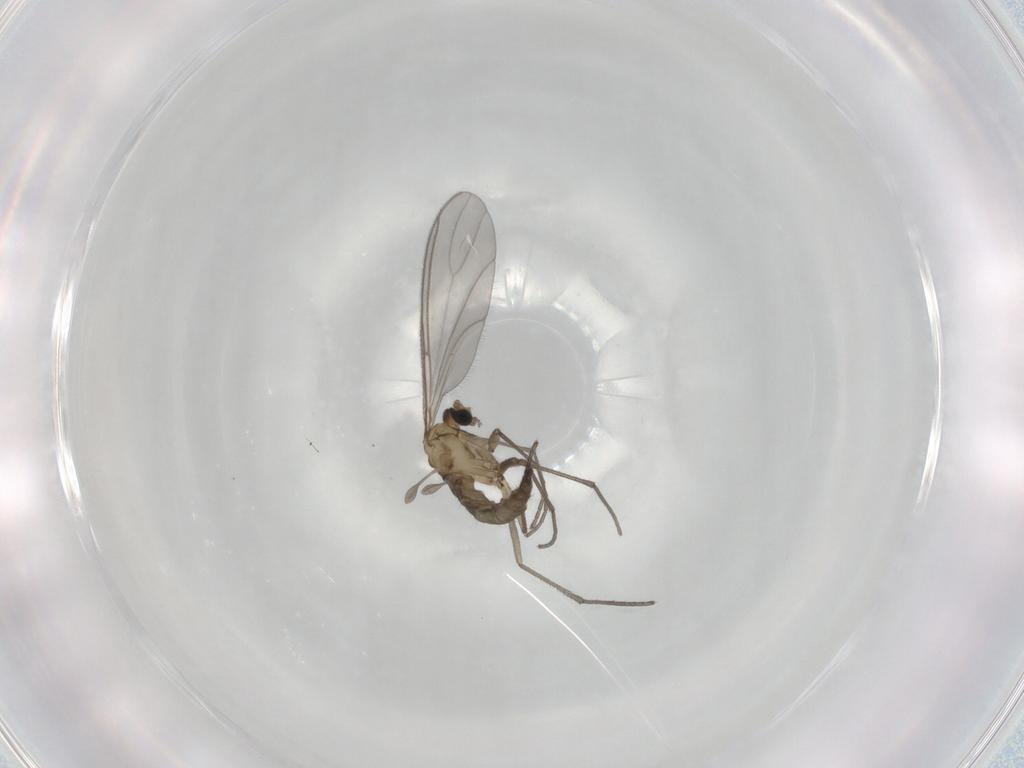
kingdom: Animalia
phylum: Arthropoda
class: Insecta
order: Diptera
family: Sciaridae
